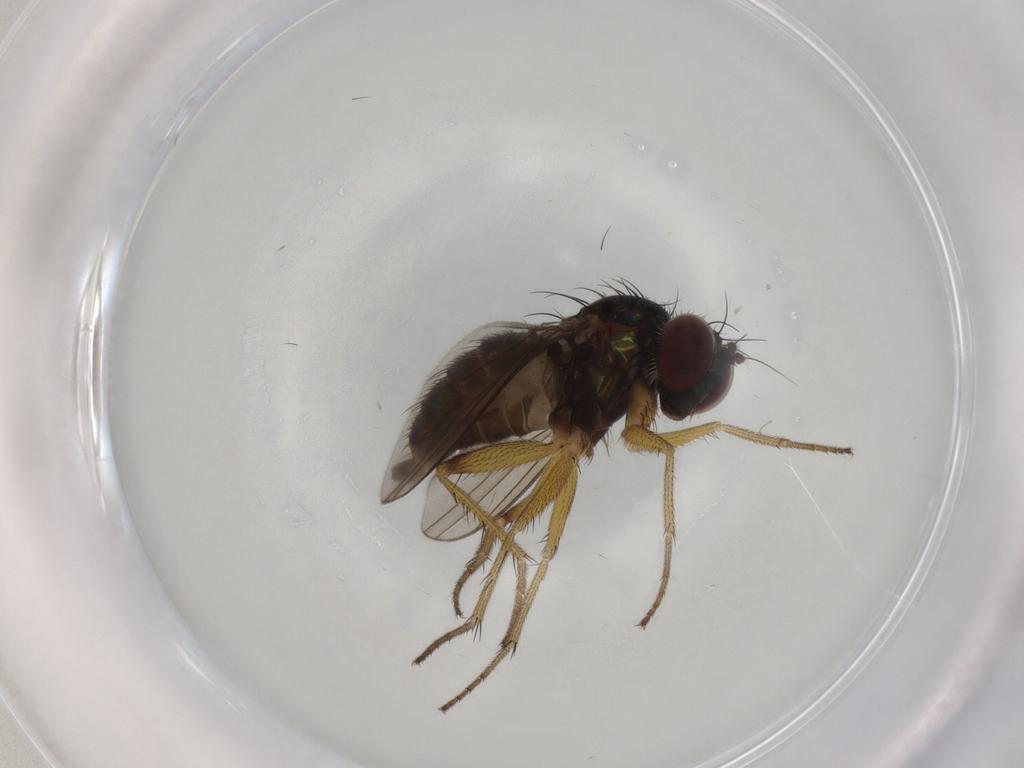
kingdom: Animalia
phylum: Arthropoda
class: Insecta
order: Diptera
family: Dolichopodidae
